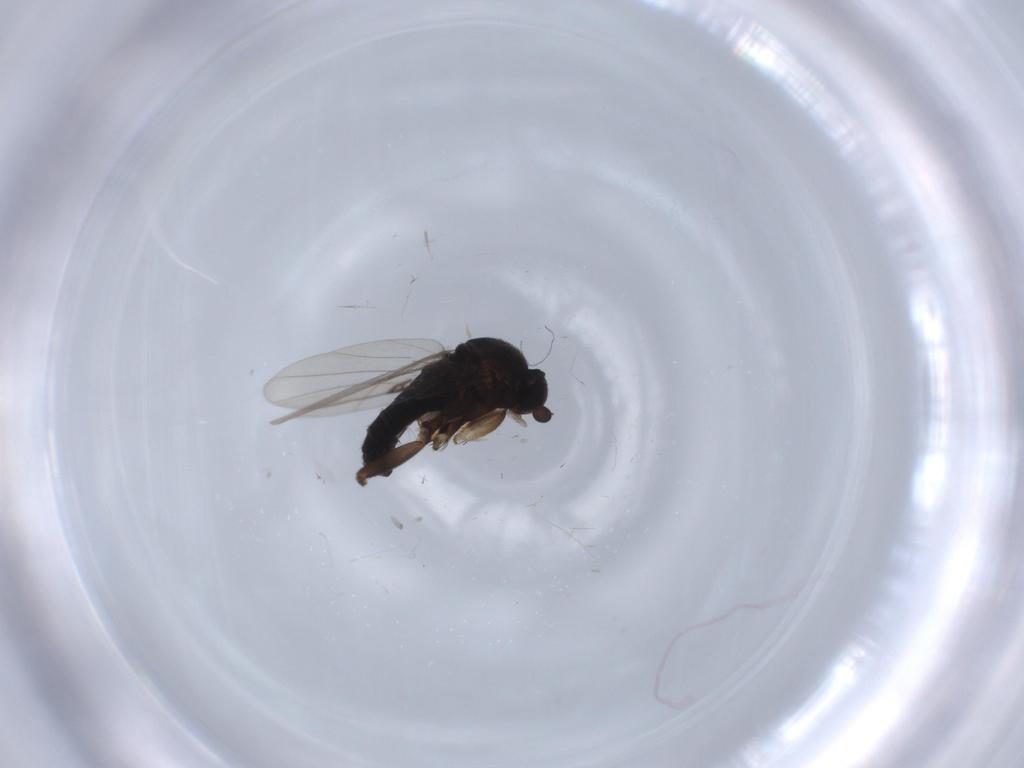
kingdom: Animalia
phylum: Arthropoda
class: Insecta
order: Diptera
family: Phoridae
